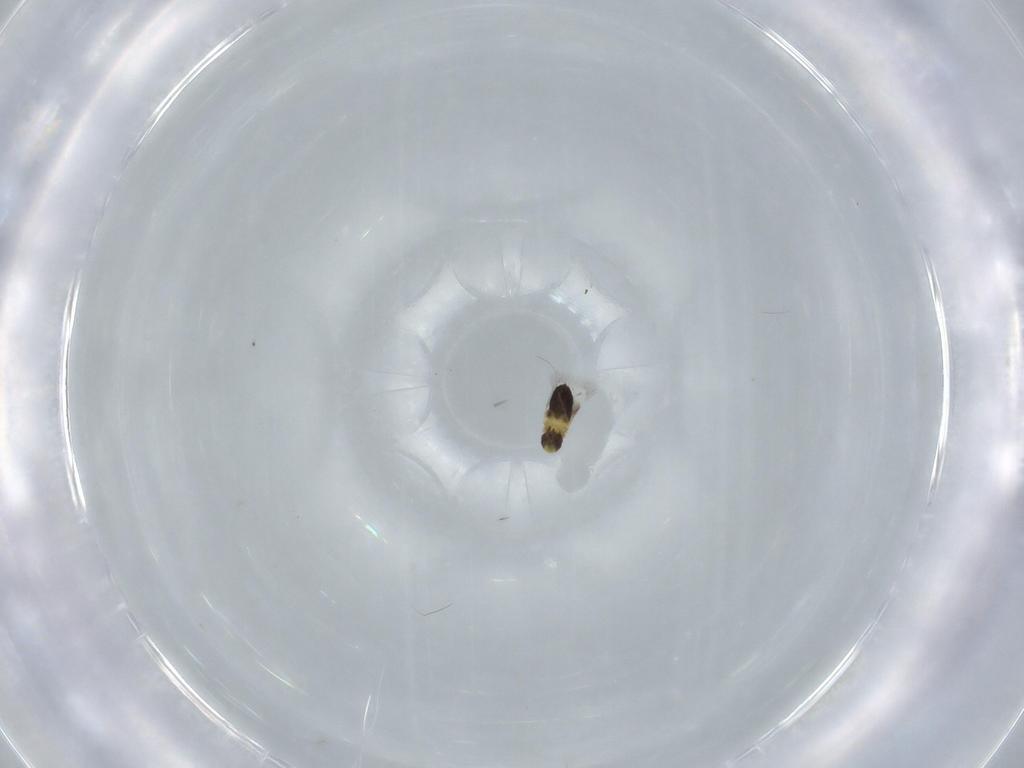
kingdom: Animalia
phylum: Arthropoda
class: Insecta
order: Hymenoptera
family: Signiphoridae
